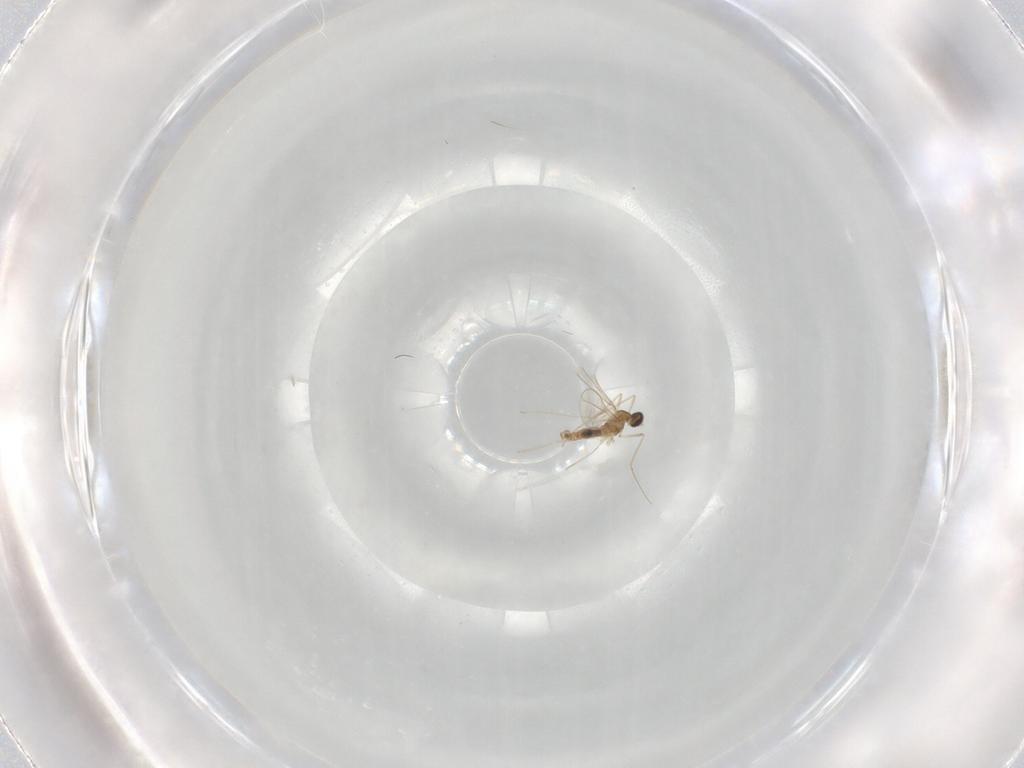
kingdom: Animalia
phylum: Arthropoda
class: Insecta
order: Diptera
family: Cecidomyiidae
